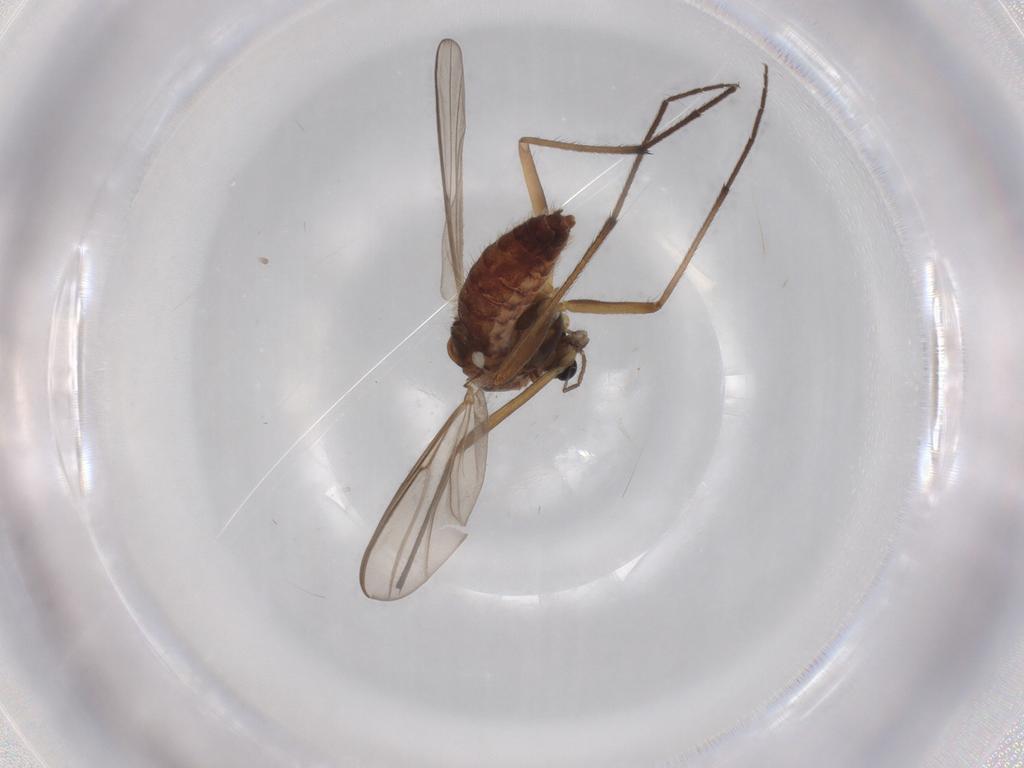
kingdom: Animalia
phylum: Arthropoda
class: Insecta
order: Diptera
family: Chironomidae
